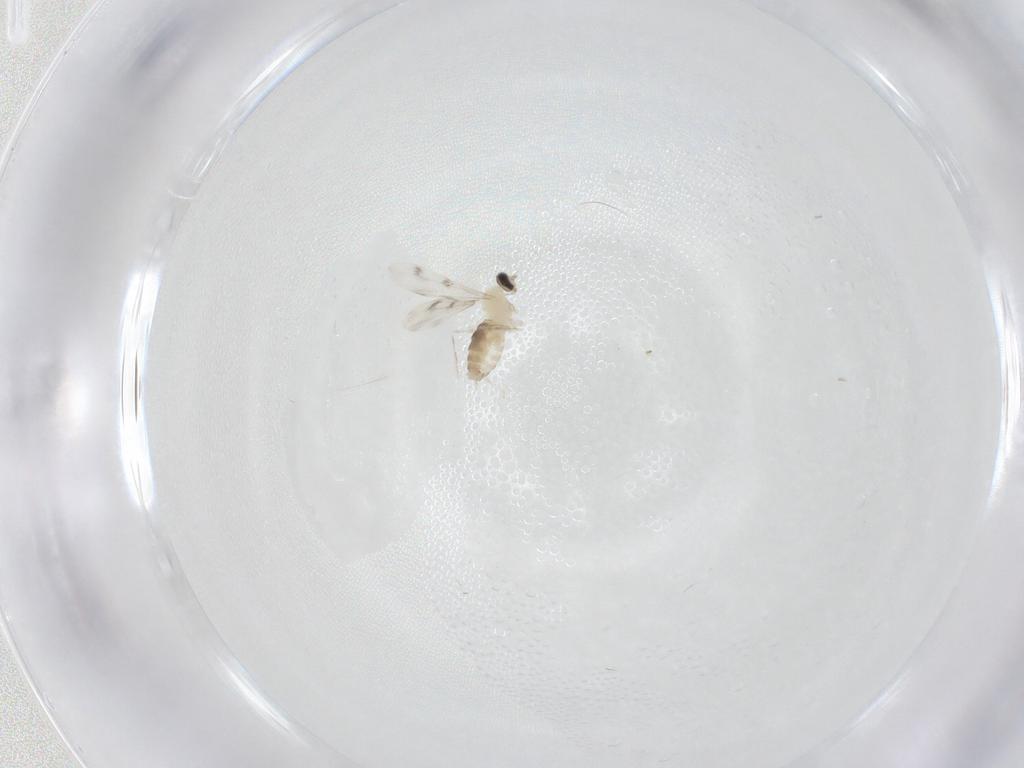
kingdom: Animalia
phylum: Arthropoda
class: Insecta
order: Diptera
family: Cecidomyiidae
